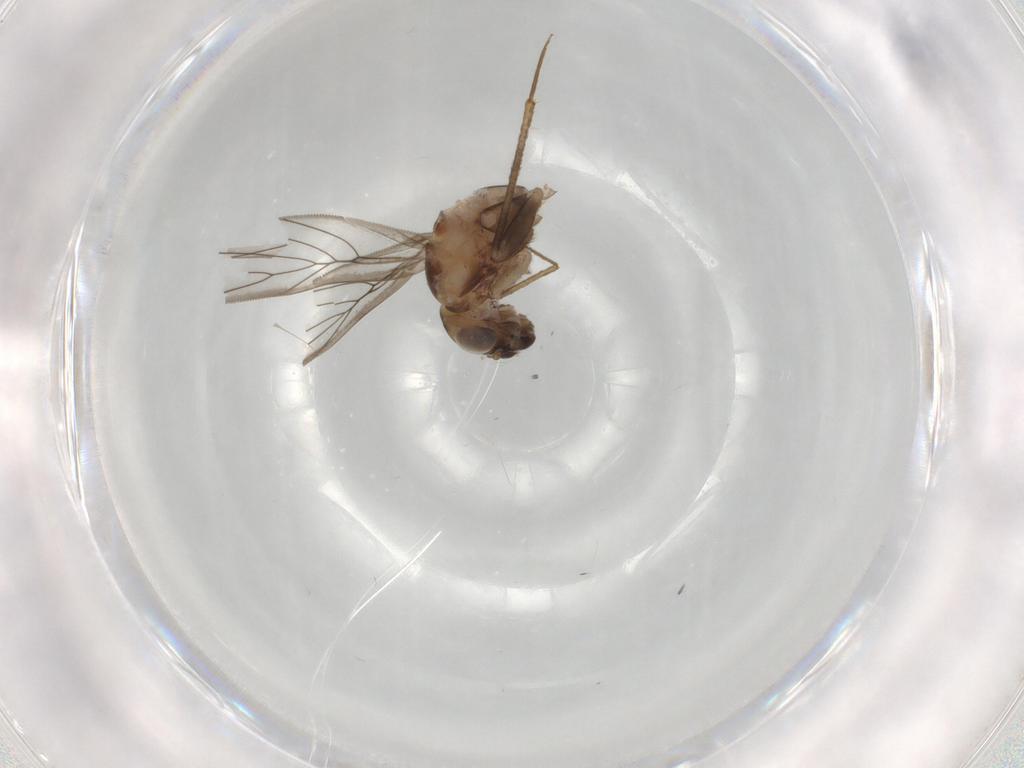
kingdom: Animalia
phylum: Arthropoda
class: Insecta
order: Psocodea
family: Lepidopsocidae
